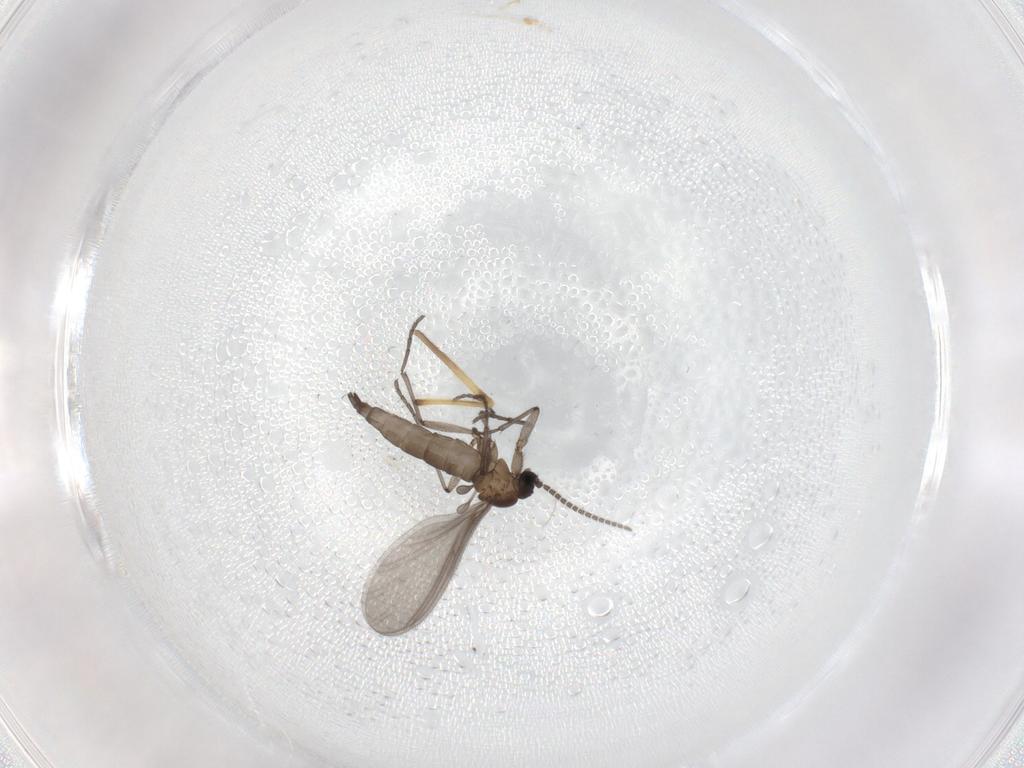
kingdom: Animalia
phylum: Arthropoda
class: Insecta
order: Diptera
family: Sciaridae
